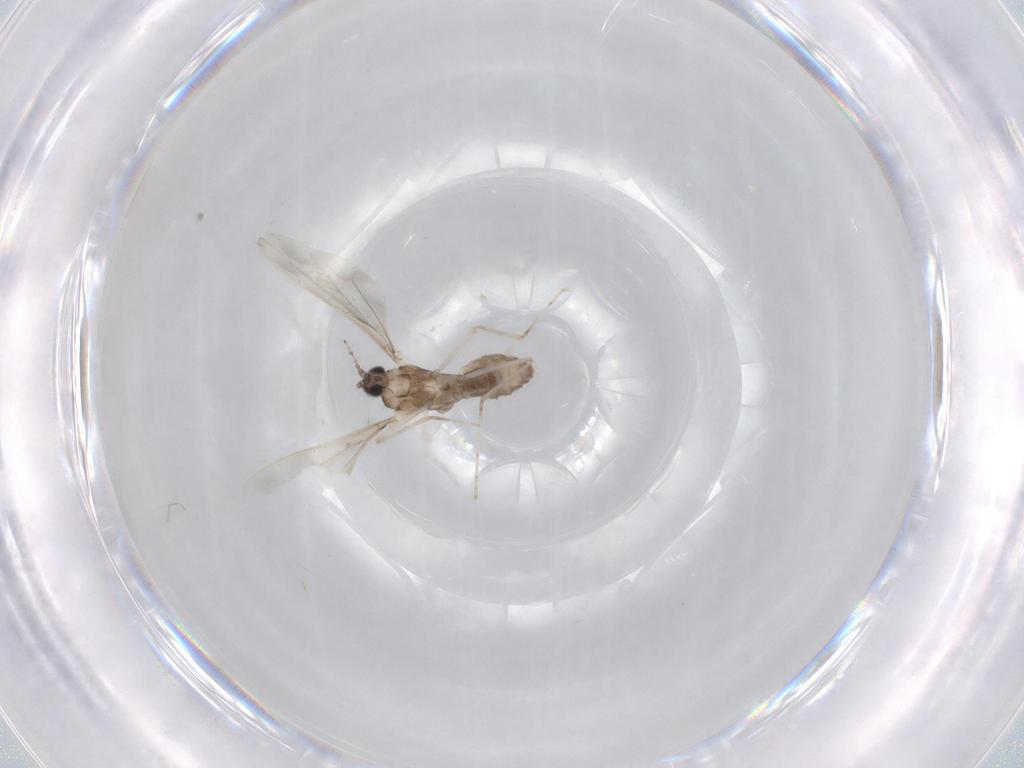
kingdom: Animalia
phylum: Arthropoda
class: Insecta
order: Diptera
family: Cecidomyiidae
